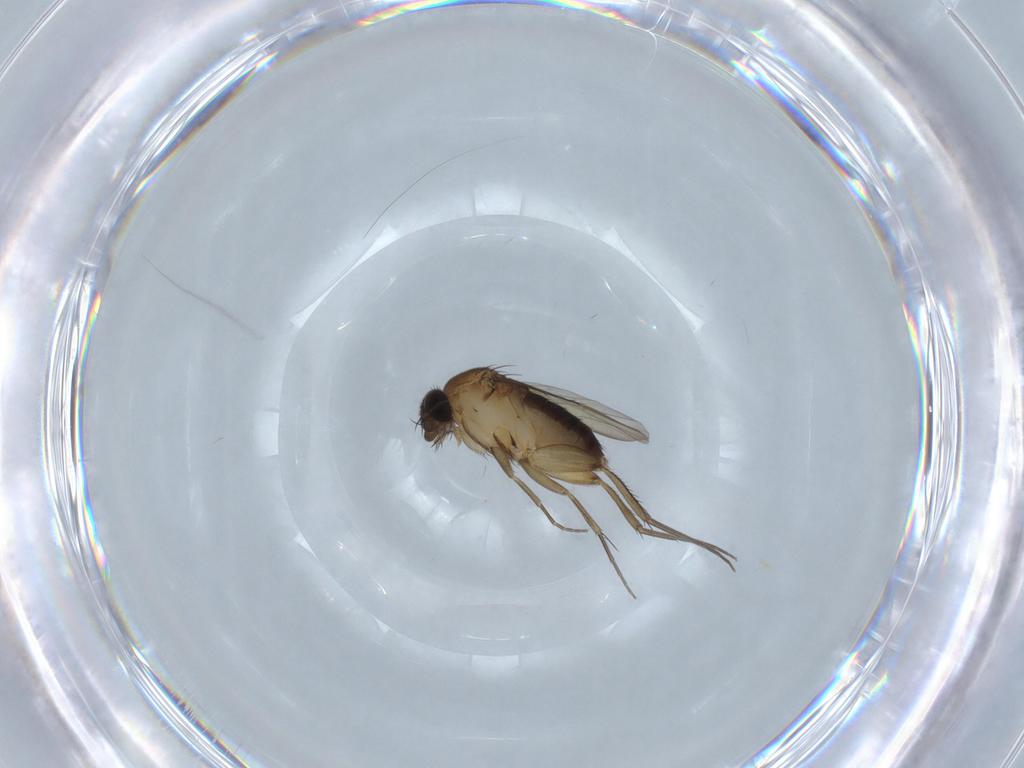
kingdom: Animalia
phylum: Arthropoda
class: Insecta
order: Diptera
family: Phoridae
